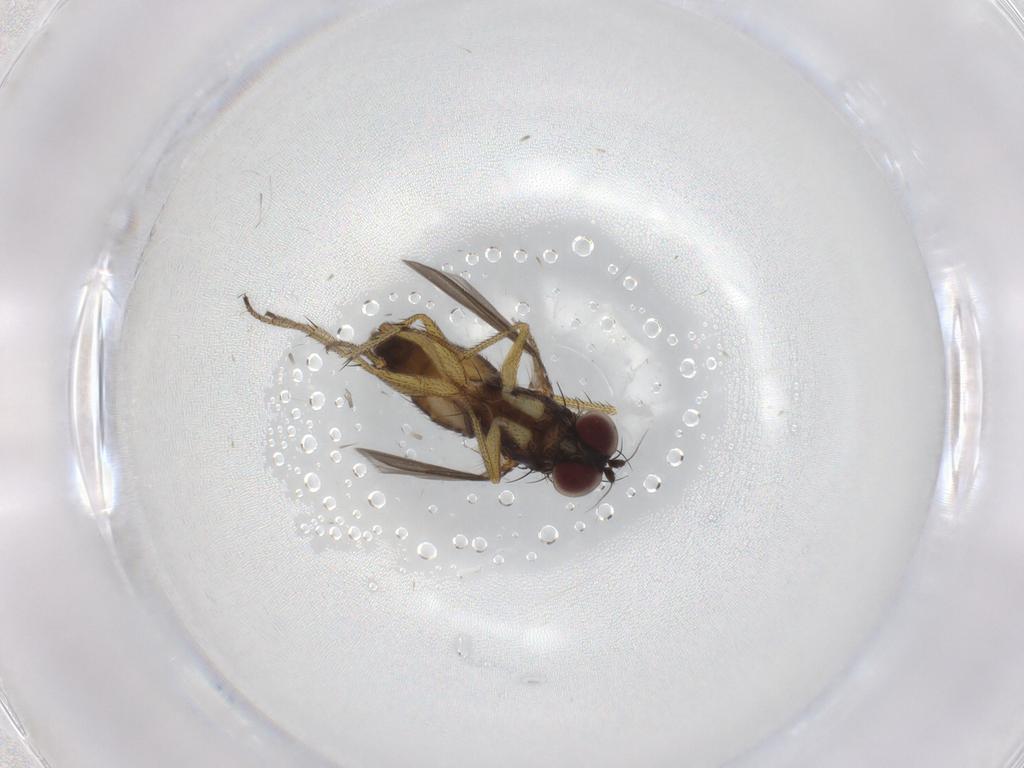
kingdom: Animalia
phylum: Arthropoda
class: Insecta
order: Diptera
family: Dolichopodidae
